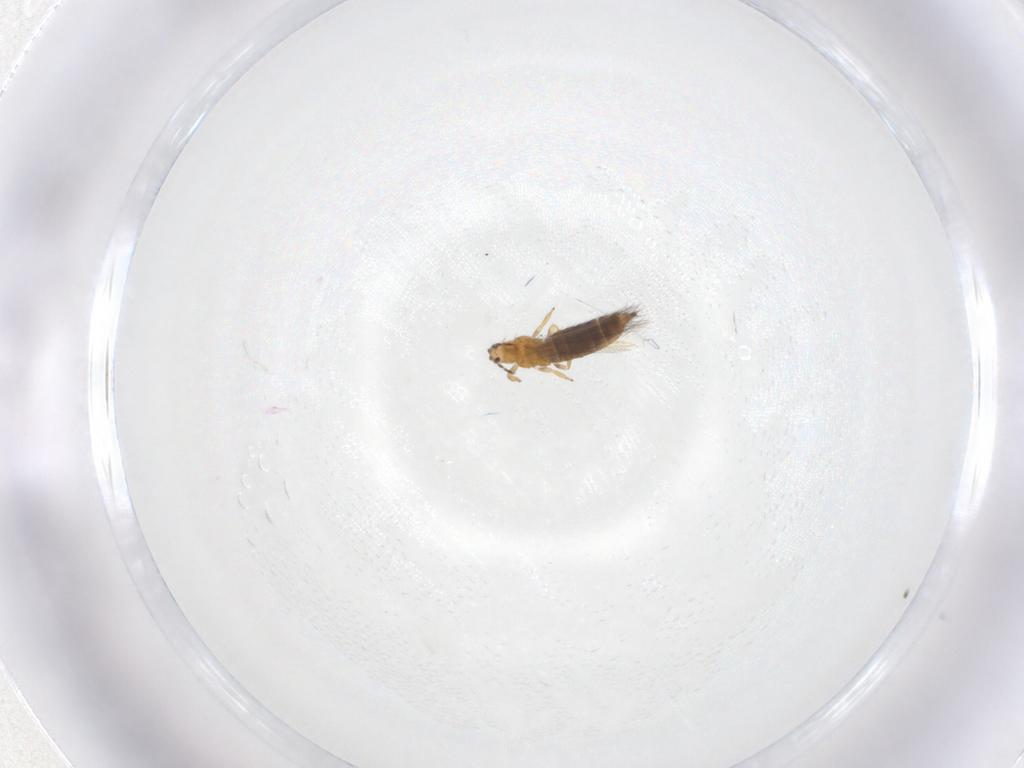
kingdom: Animalia
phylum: Arthropoda
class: Insecta
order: Thysanoptera
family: Thripidae
